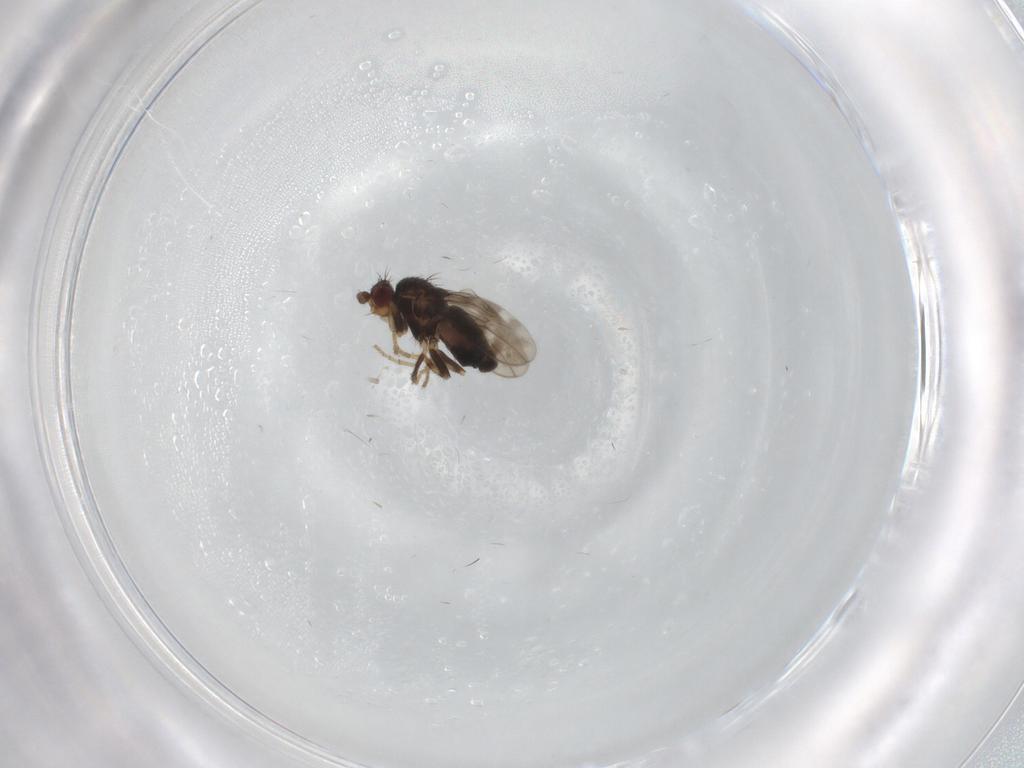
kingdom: Animalia
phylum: Arthropoda
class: Insecta
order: Diptera
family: Sphaeroceridae
